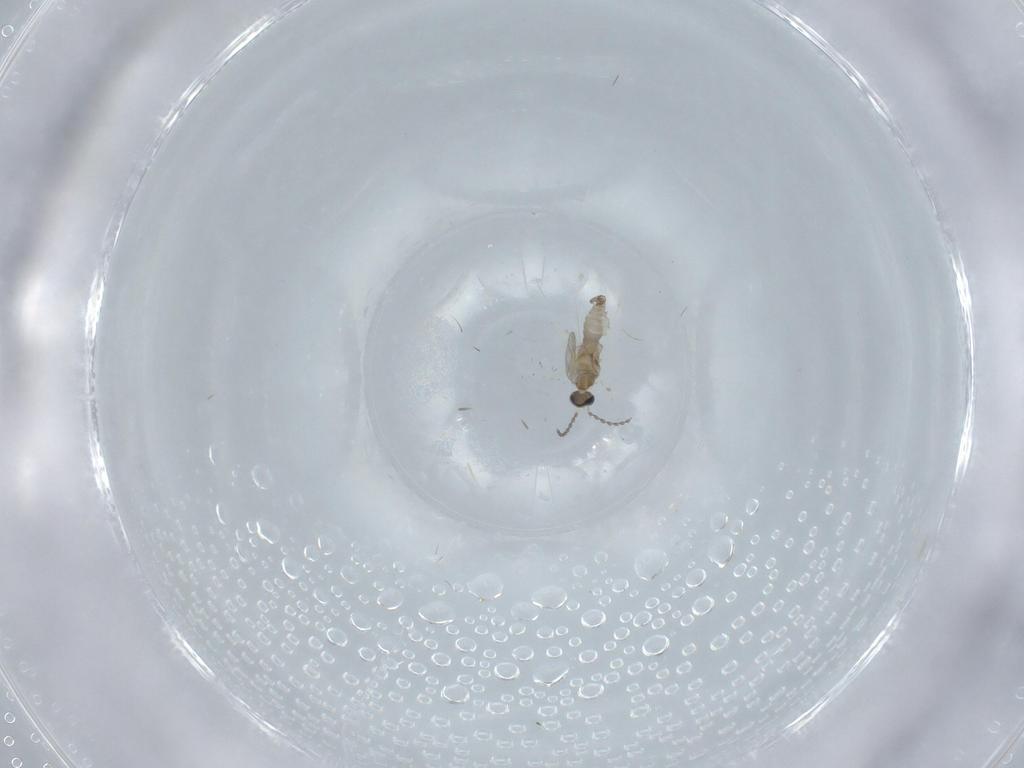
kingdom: Animalia
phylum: Arthropoda
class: Insecta
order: Diptera
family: Cecidomyiidae
